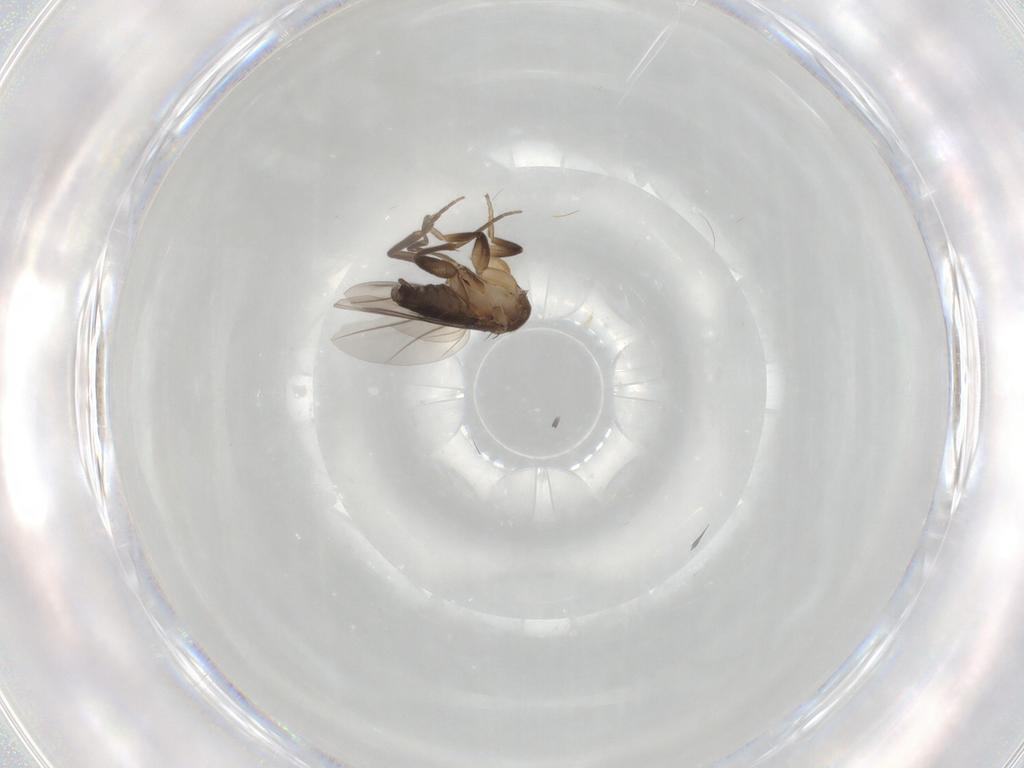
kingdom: Animalia
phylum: Arthropoda
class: Insecta
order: Diptera
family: Phoridae
